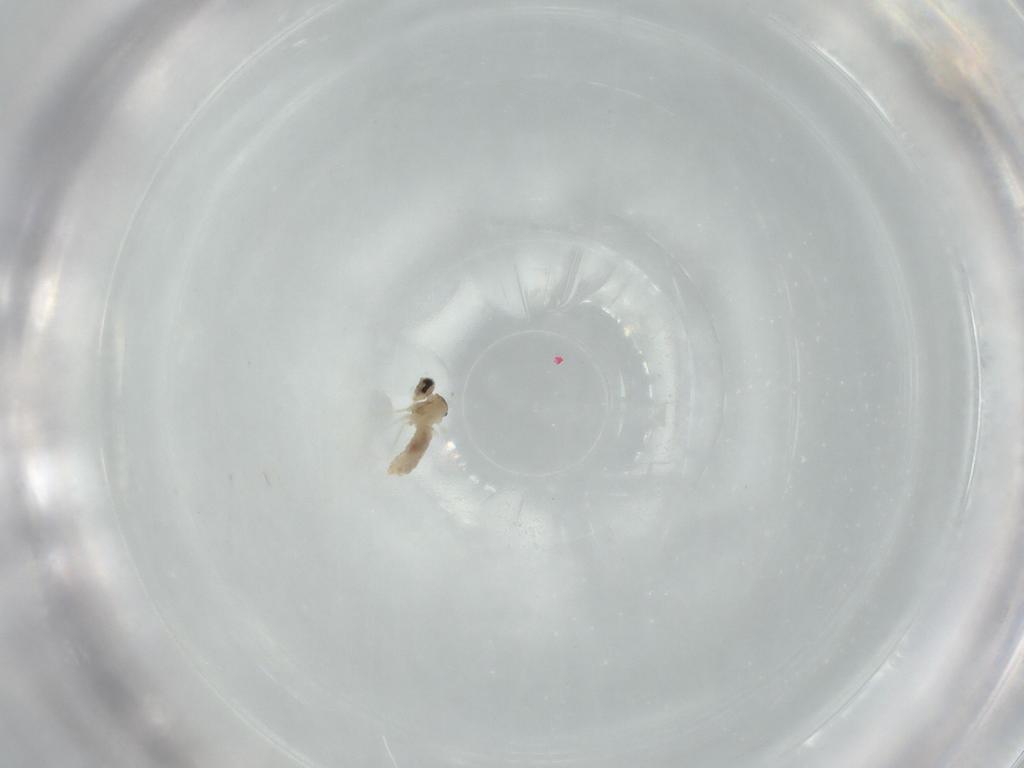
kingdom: Animalia
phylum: Arthropoda
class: Insecta
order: Diptera
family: Cecidomyiidae
